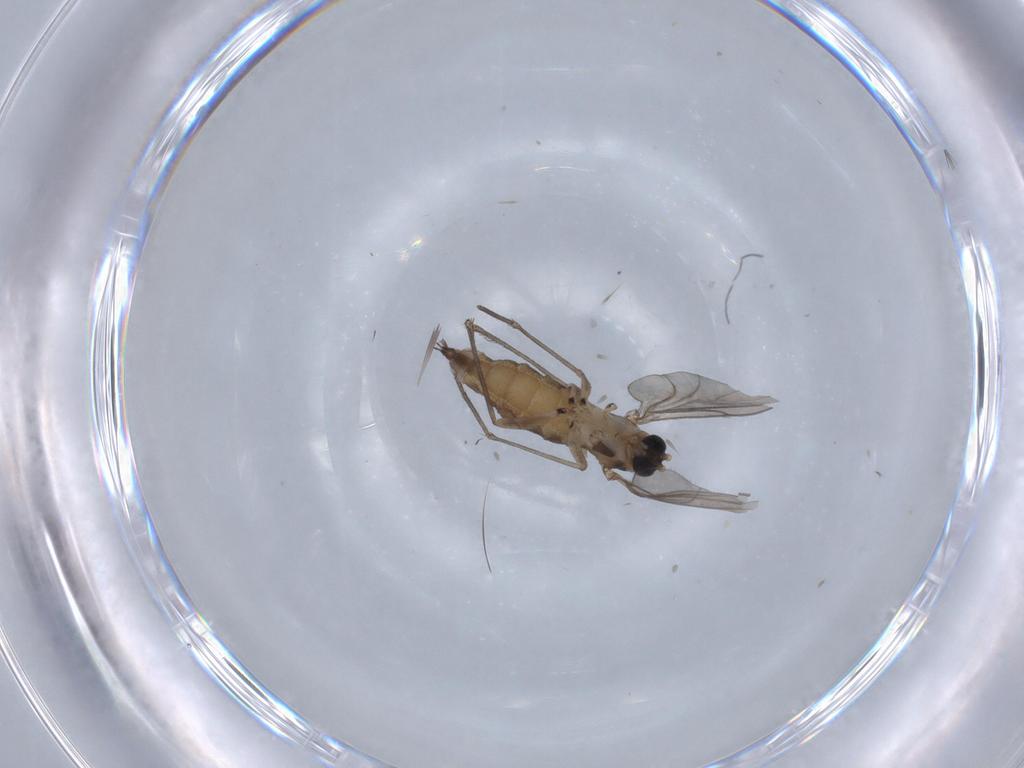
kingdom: Animalia
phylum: Arthropoda
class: Insecta
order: Diptera
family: Sciaridae
